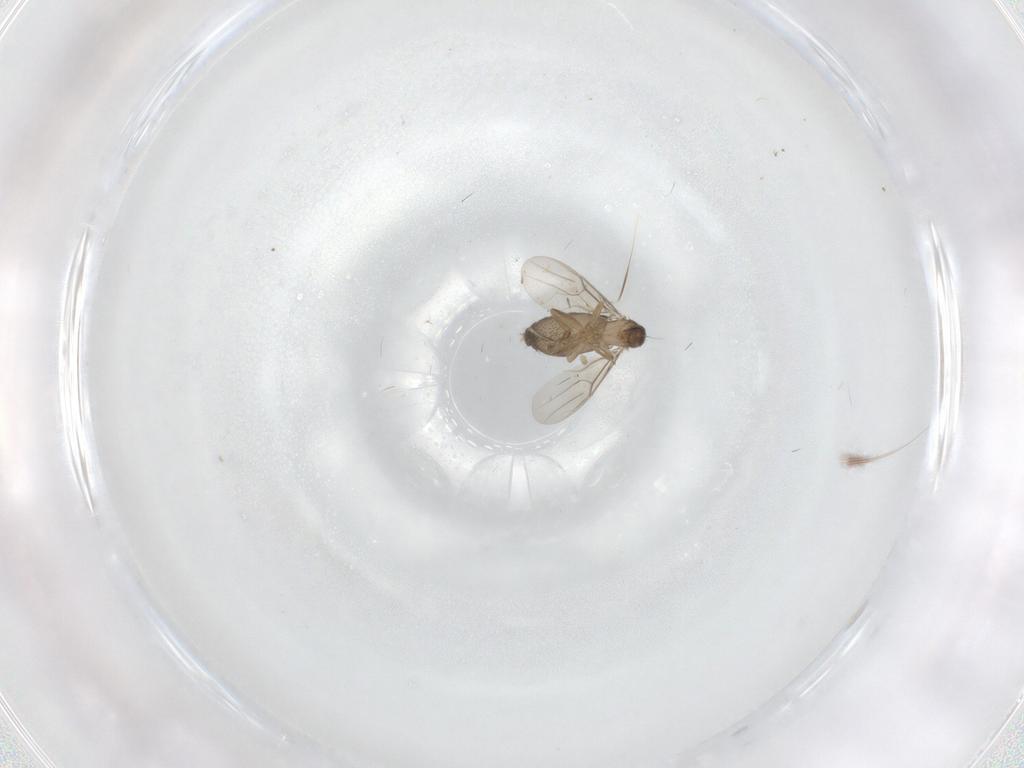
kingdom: Animalia
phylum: Arthropoda
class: Insecta
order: Diptera
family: Phoridae
